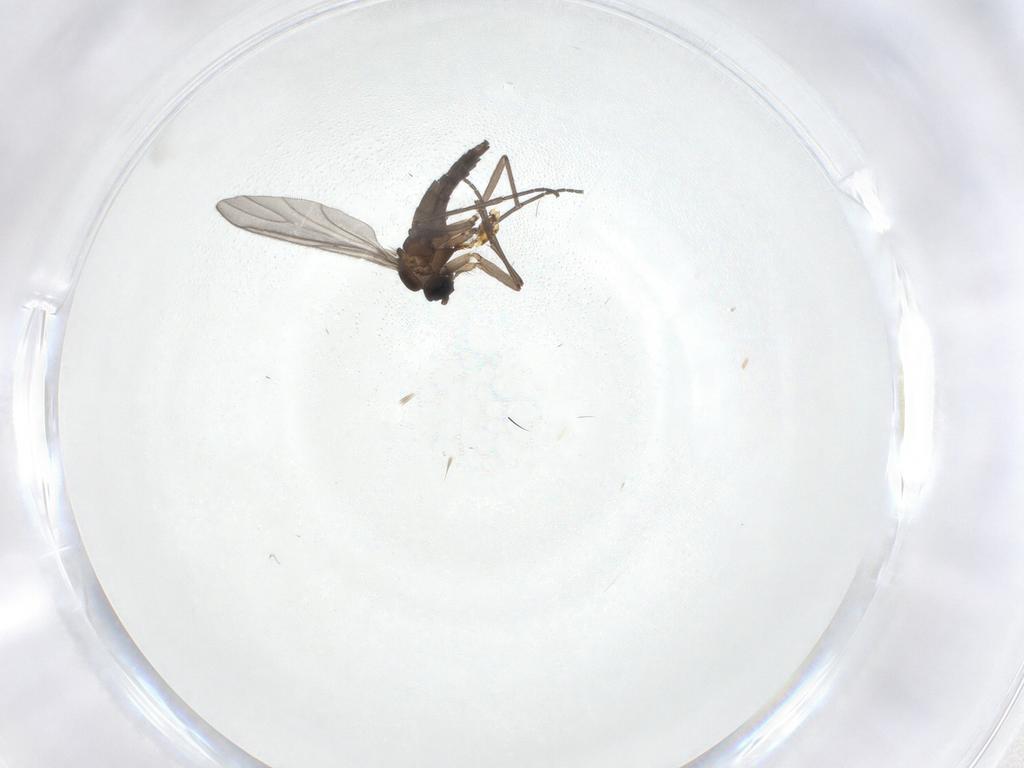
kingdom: Animalia
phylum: Arthropoda
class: Insecta
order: Diptera
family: Sciaridae
